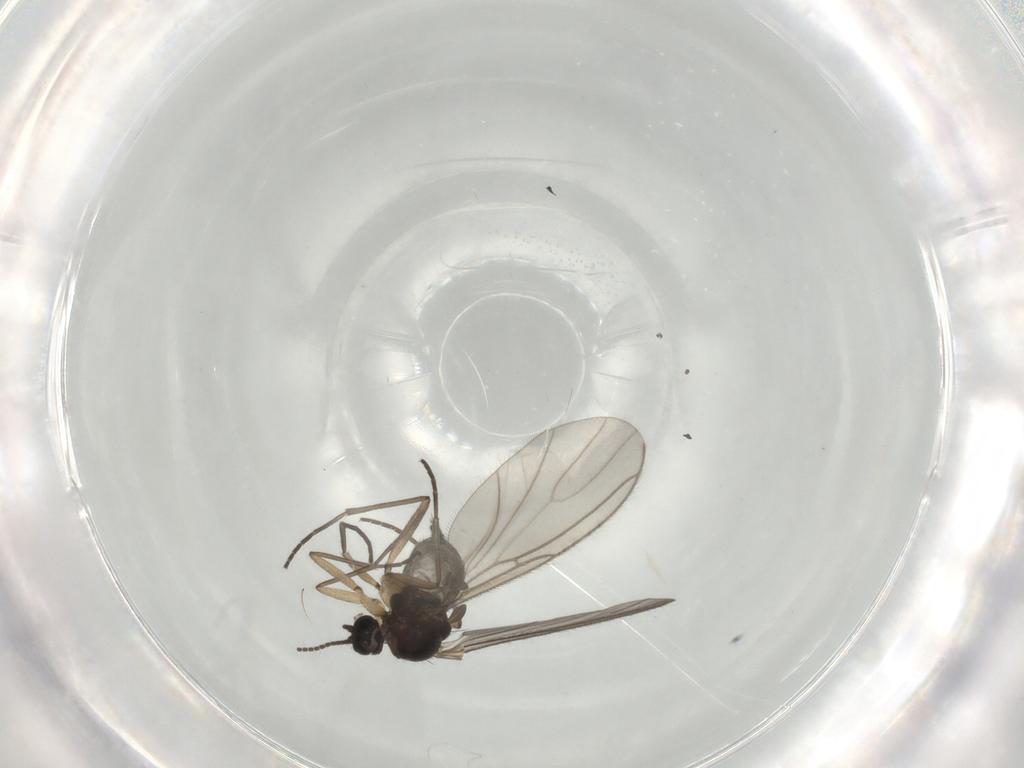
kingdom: Animalia
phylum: Arthropoda
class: Insecta
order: Diptera
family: Sciaridae
